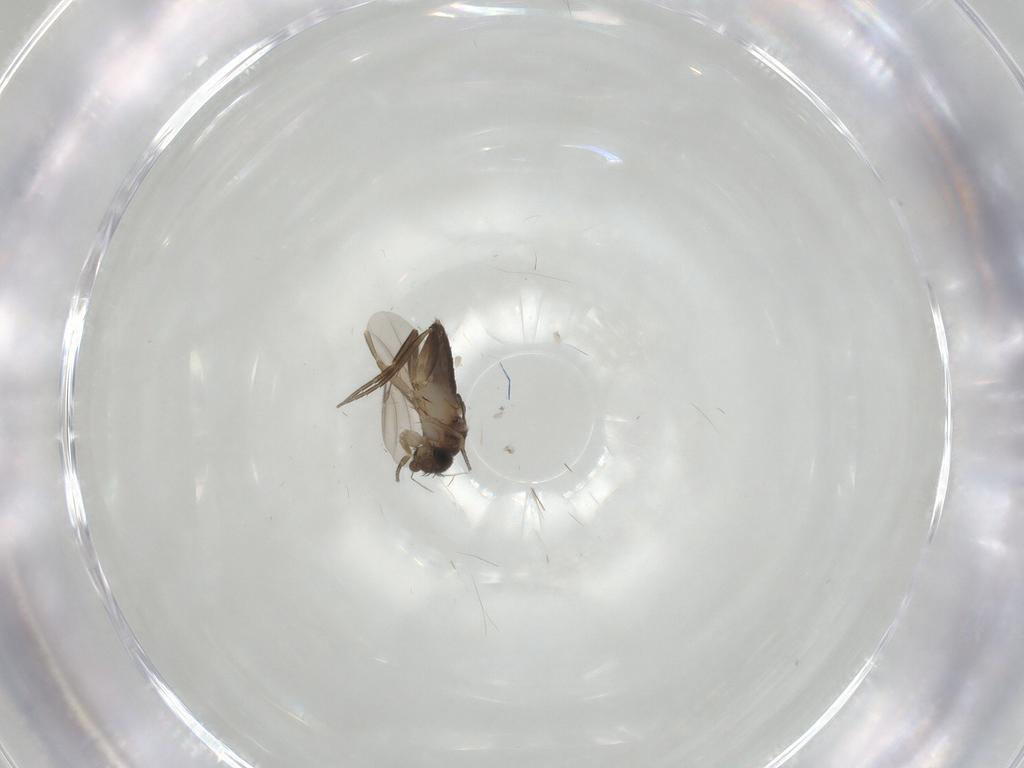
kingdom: Animalia
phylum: Arthropoda
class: Insecta
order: Diptera
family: Phoridae
